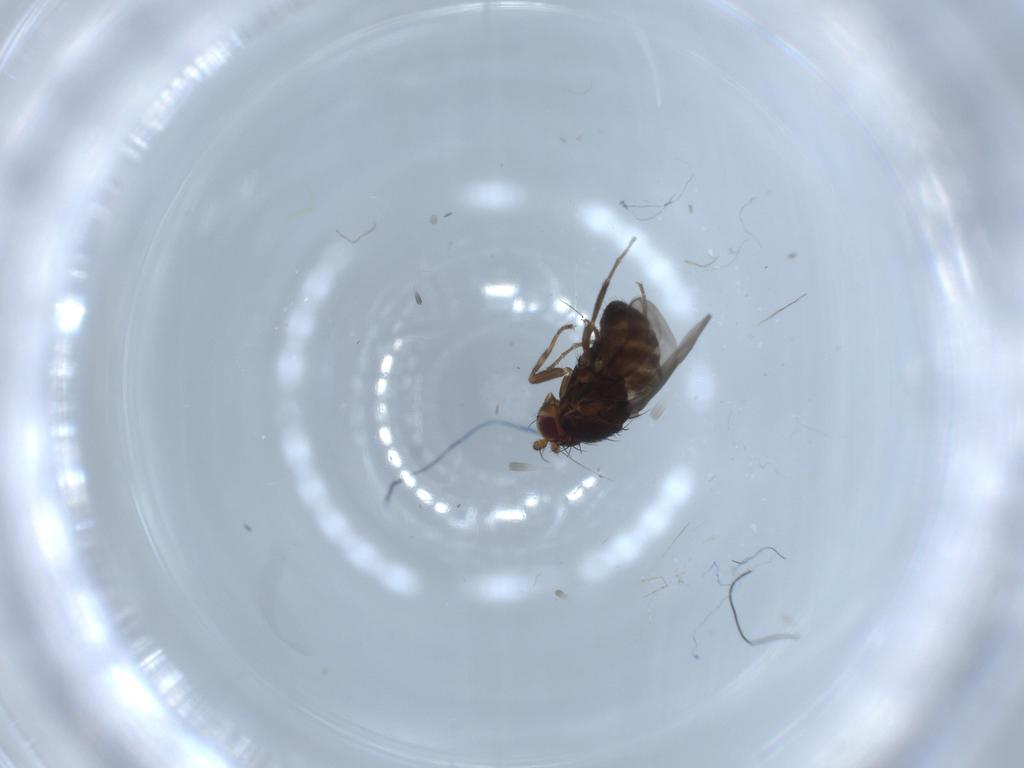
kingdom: Animalia
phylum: Arthropoda
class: Insecta
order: Diptera
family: Sphaeroceridae
